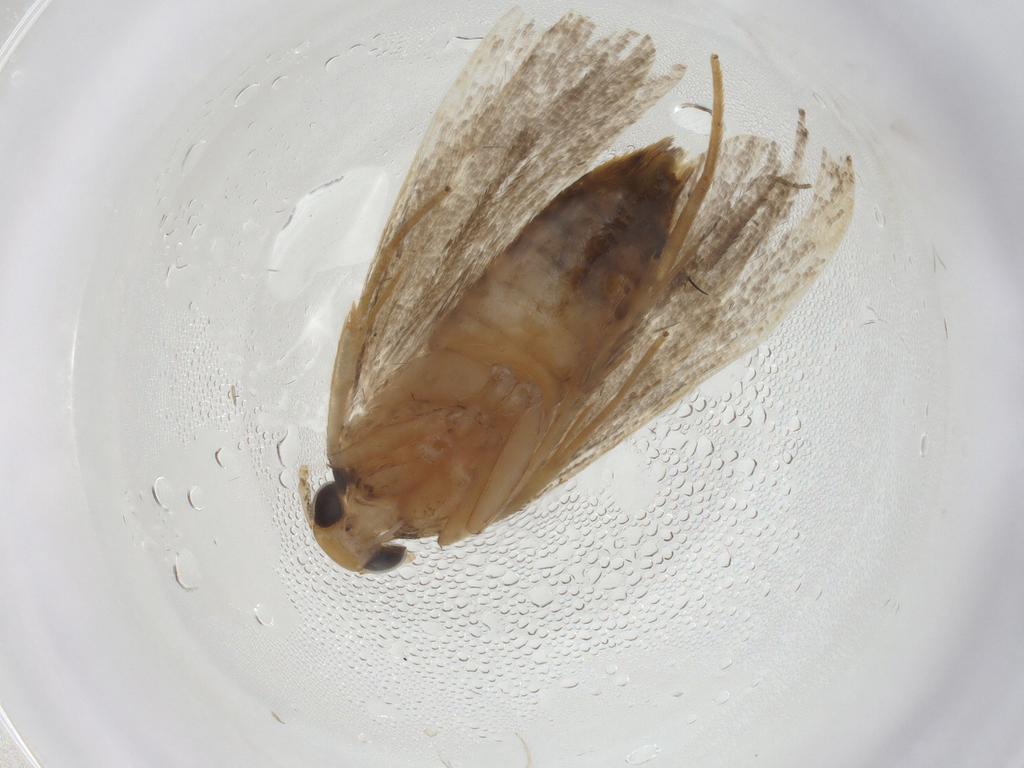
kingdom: Animalia
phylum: Arthropoda
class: Insecta
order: Lepidoptera
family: Lecithoceridae
